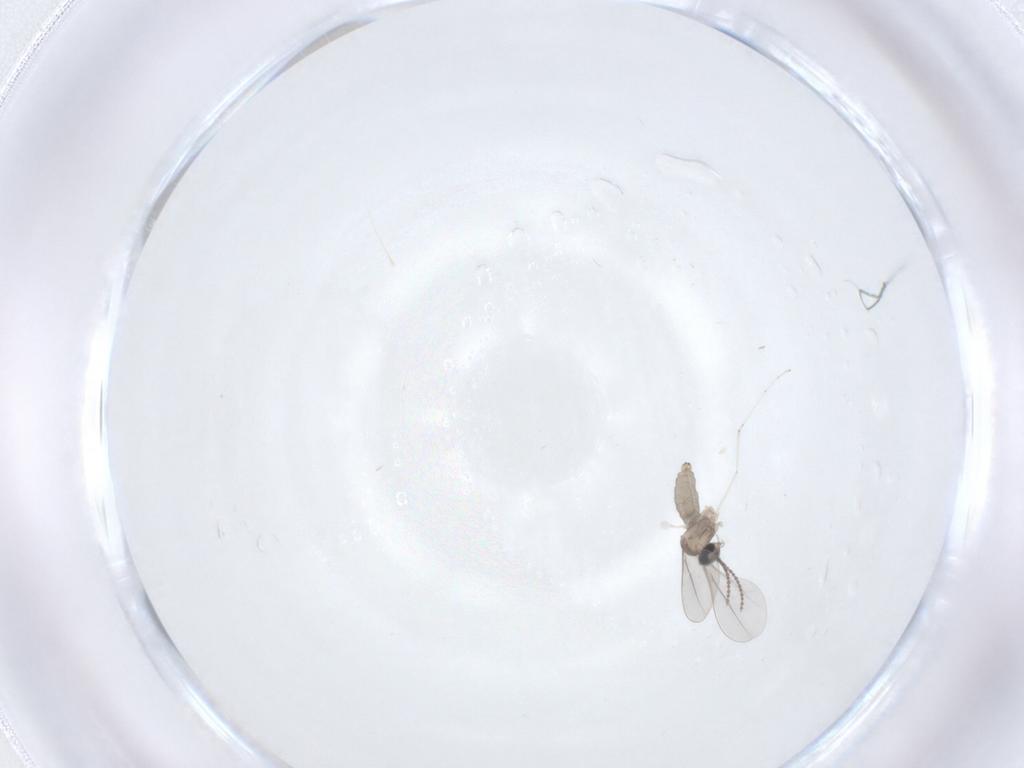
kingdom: Animalia
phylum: Arthropoda
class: Insecta
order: Diptera
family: Cecidomyiidae
